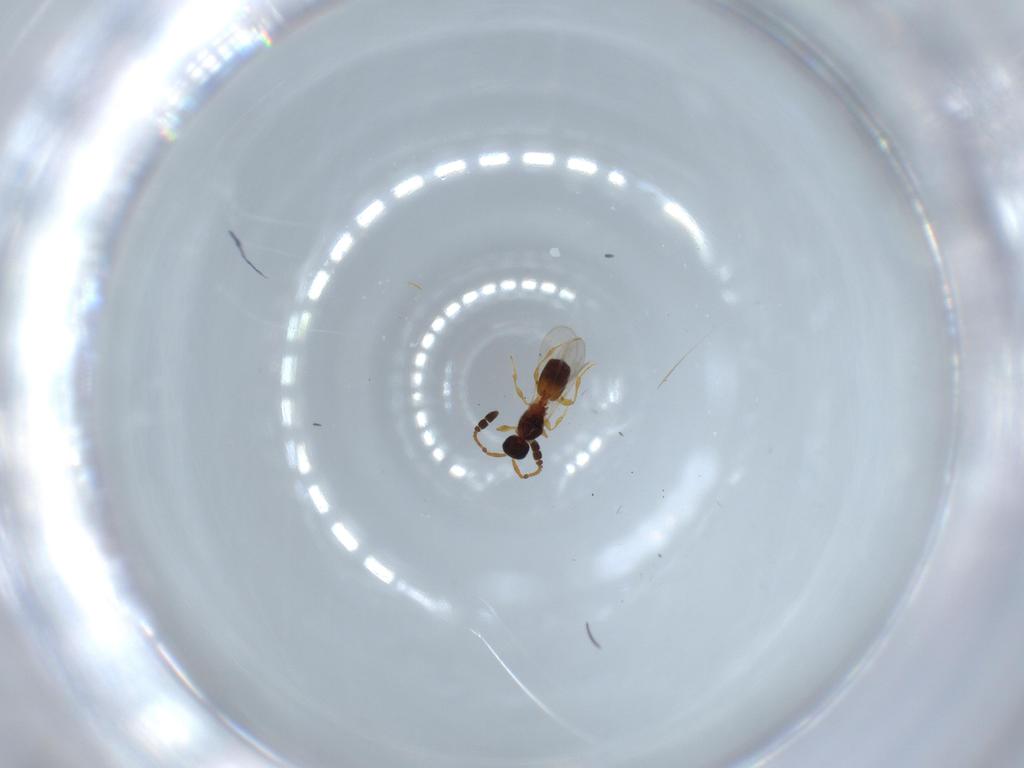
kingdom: Animalia
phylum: Arthropoda
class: Insecta
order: Hymenoptera
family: Diapriidae
